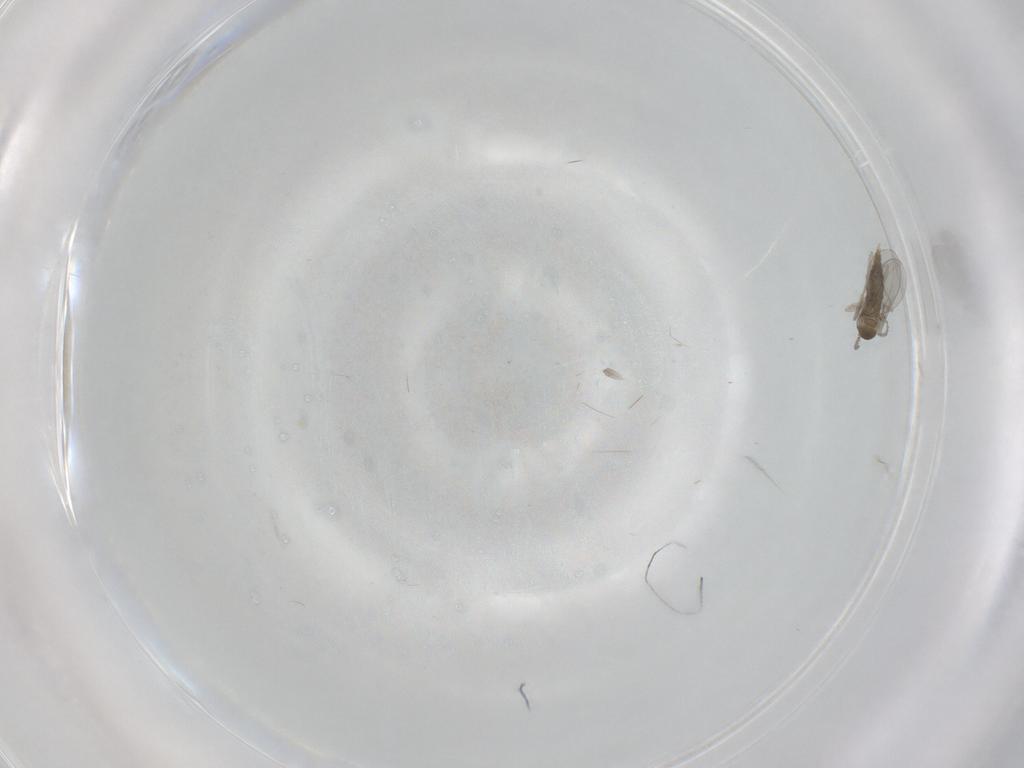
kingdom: Animalia
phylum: Arthropoda
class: Insecta
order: Diptera
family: Cecidomyiidae
